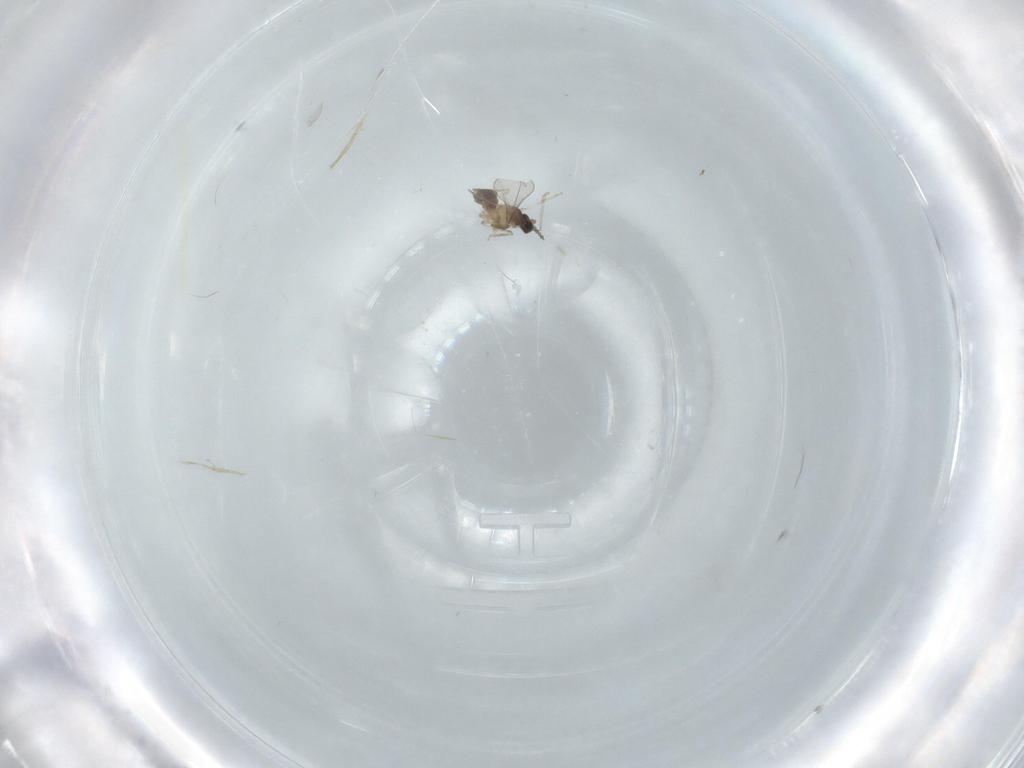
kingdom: Animalia
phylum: Arthropoda
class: Insecta
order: Diptera
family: Cecidomyiidae
